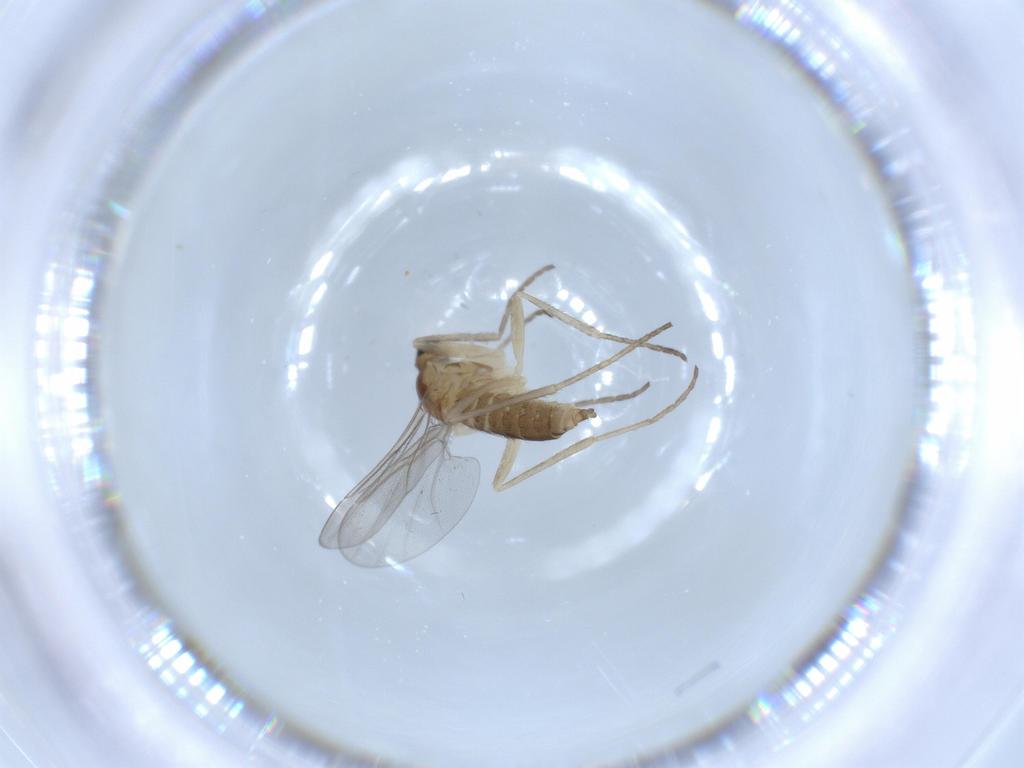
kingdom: Animalia
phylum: Arthropoda
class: Insecta
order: Diptera
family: Cecidomyiidae
